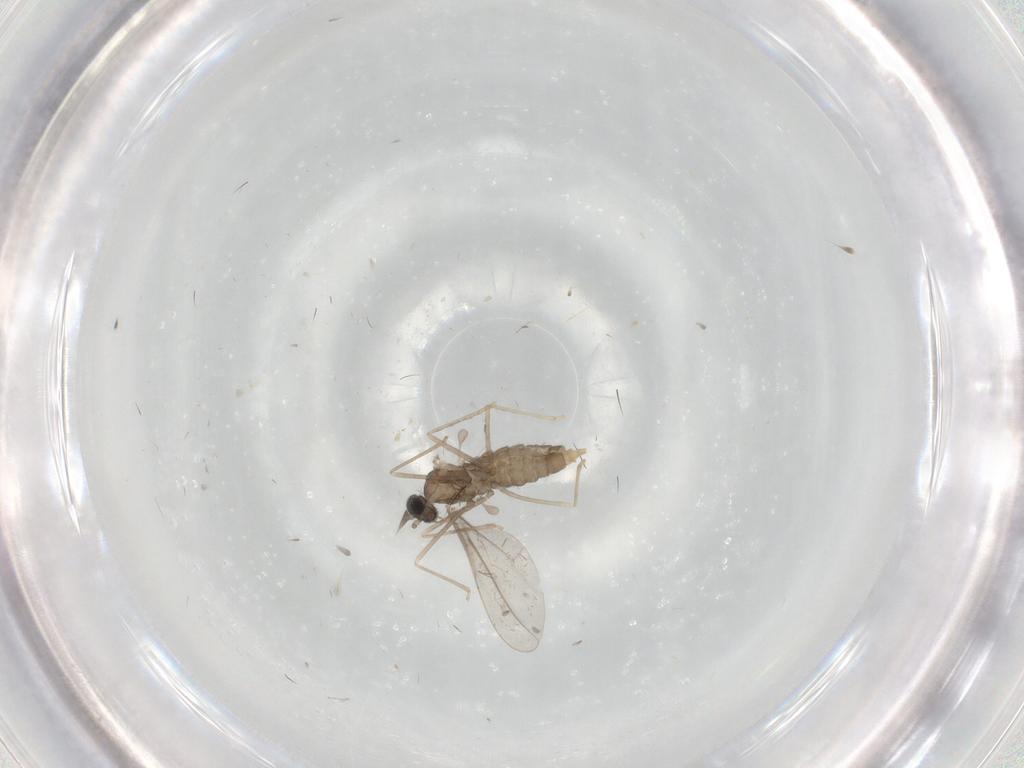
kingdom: Animalia
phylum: Arthropoda
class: Insecta
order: Diptera
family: Cecidomyiidae
